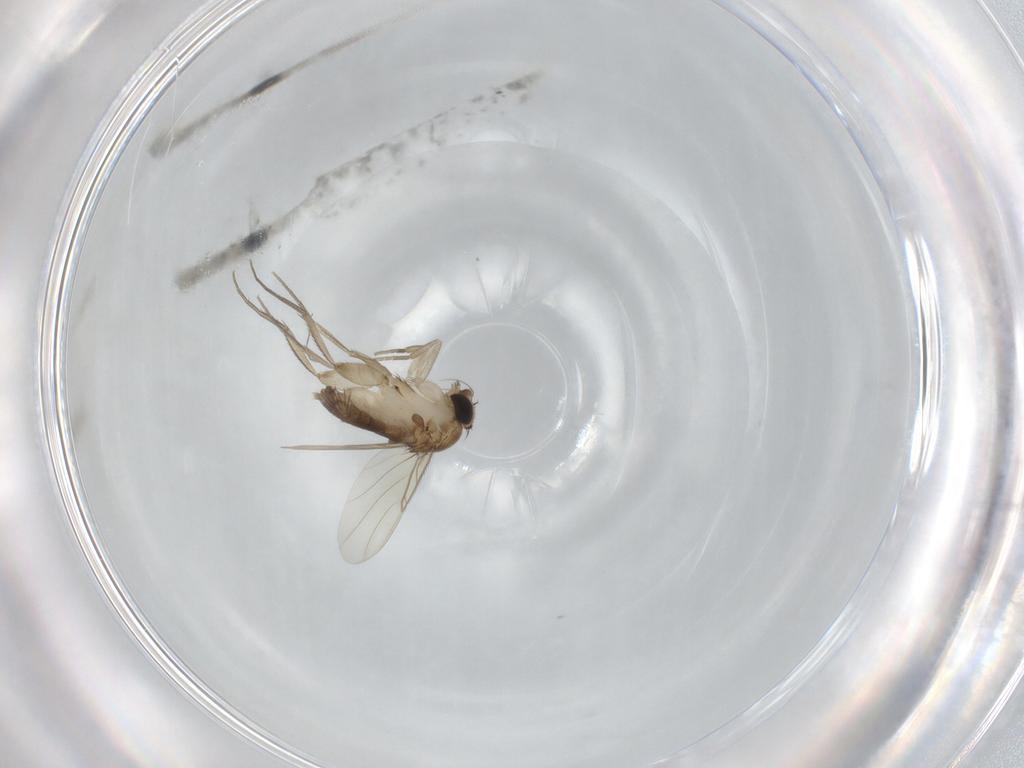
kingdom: Animalia
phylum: Arthropoda
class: Insecta
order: Diptera
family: Phoridae
